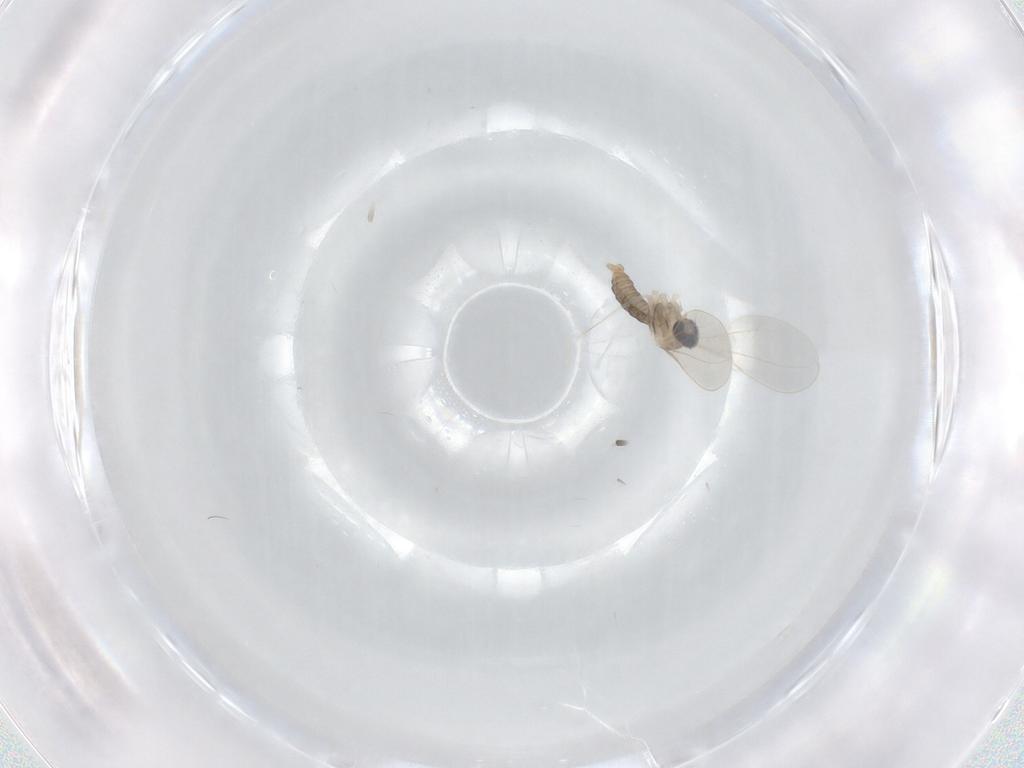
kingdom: Animalia
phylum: Arthropoda
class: Insecta
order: Diptera
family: Cecidomyiidae
